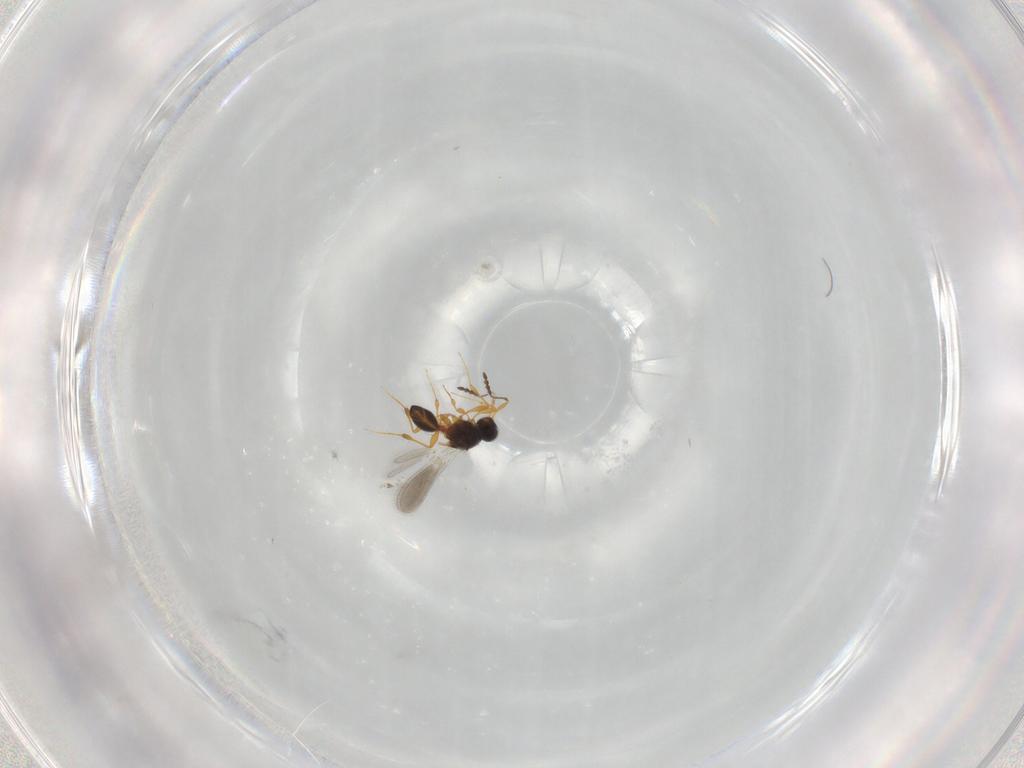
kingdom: Animalia
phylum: Arthropoda
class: Insecta
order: Hymenoptera
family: Platygastridae
